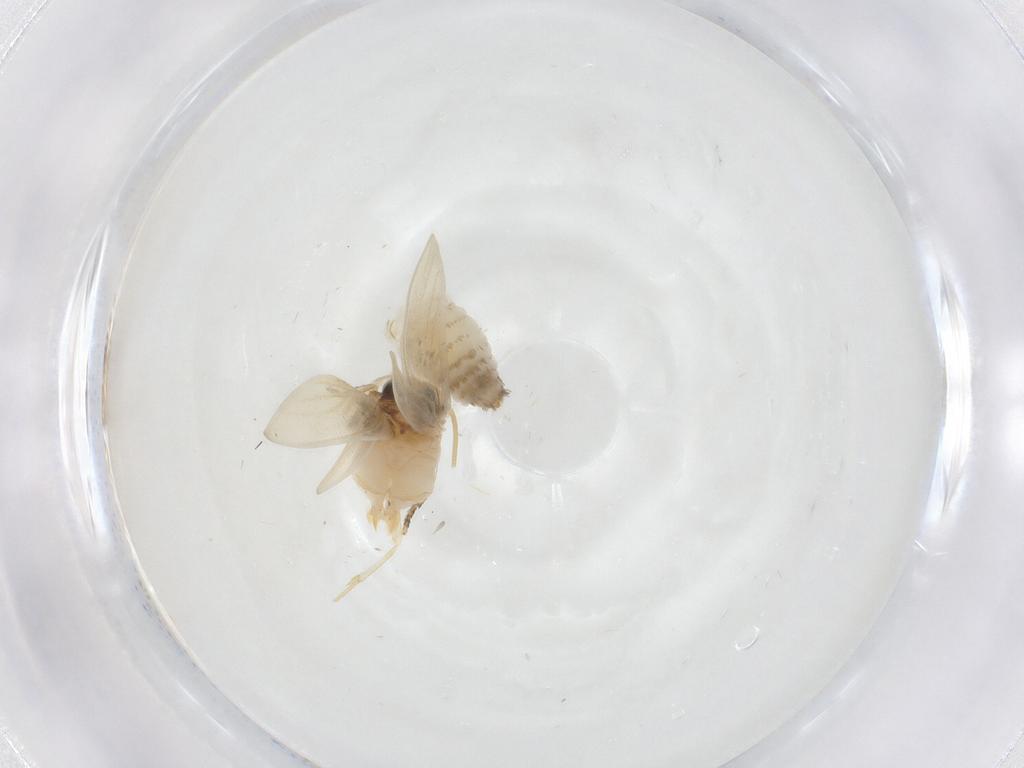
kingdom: Animalia
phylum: Arthropoda
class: Insecta
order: Lepidoptera
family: Nepticulidae
